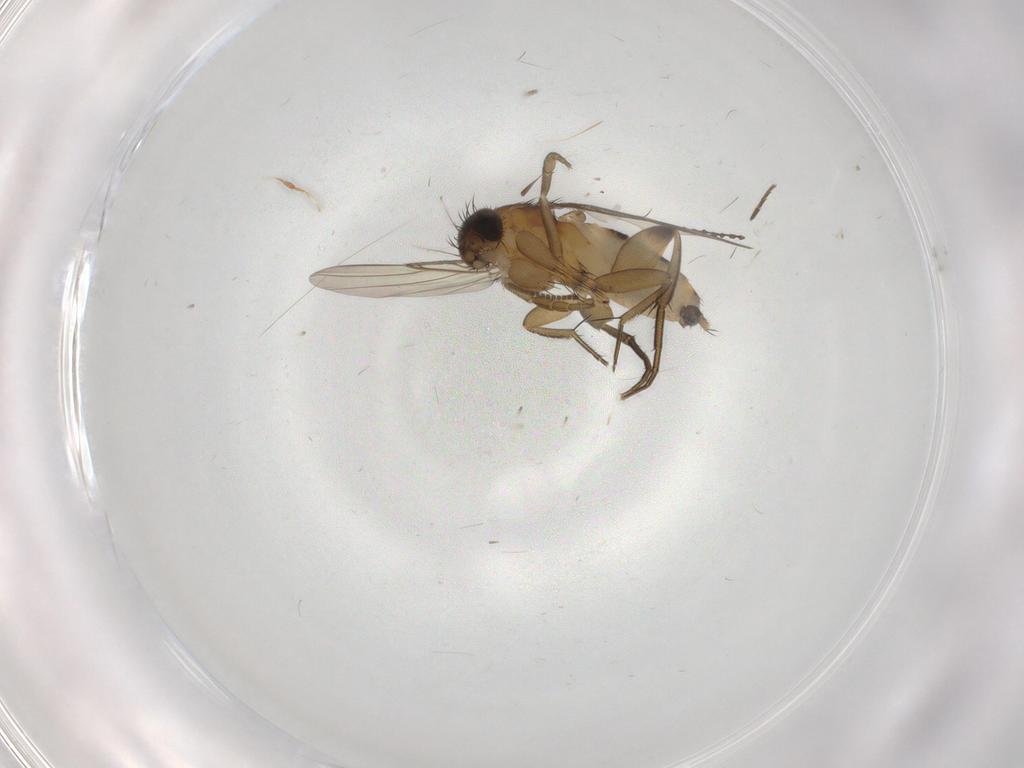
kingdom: Animalia
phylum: Arthropoda
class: Insecta
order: Diptera
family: Phoridae
